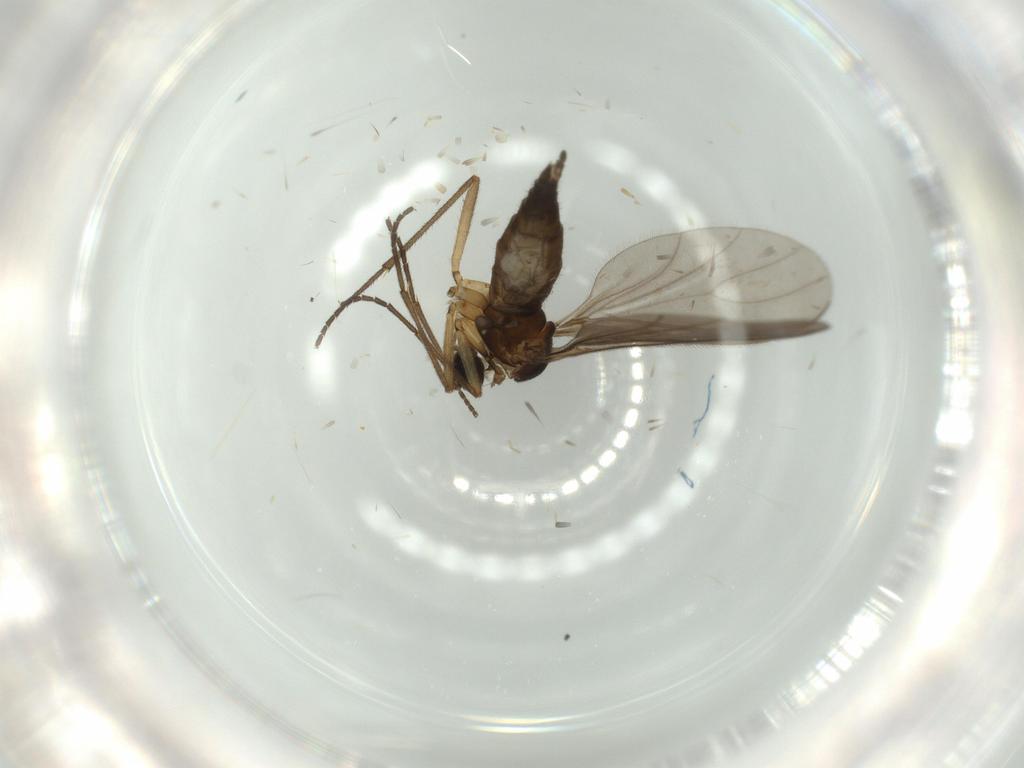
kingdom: Animalia
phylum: Arthropoda
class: Insecta
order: Diptera
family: Sciaridae
